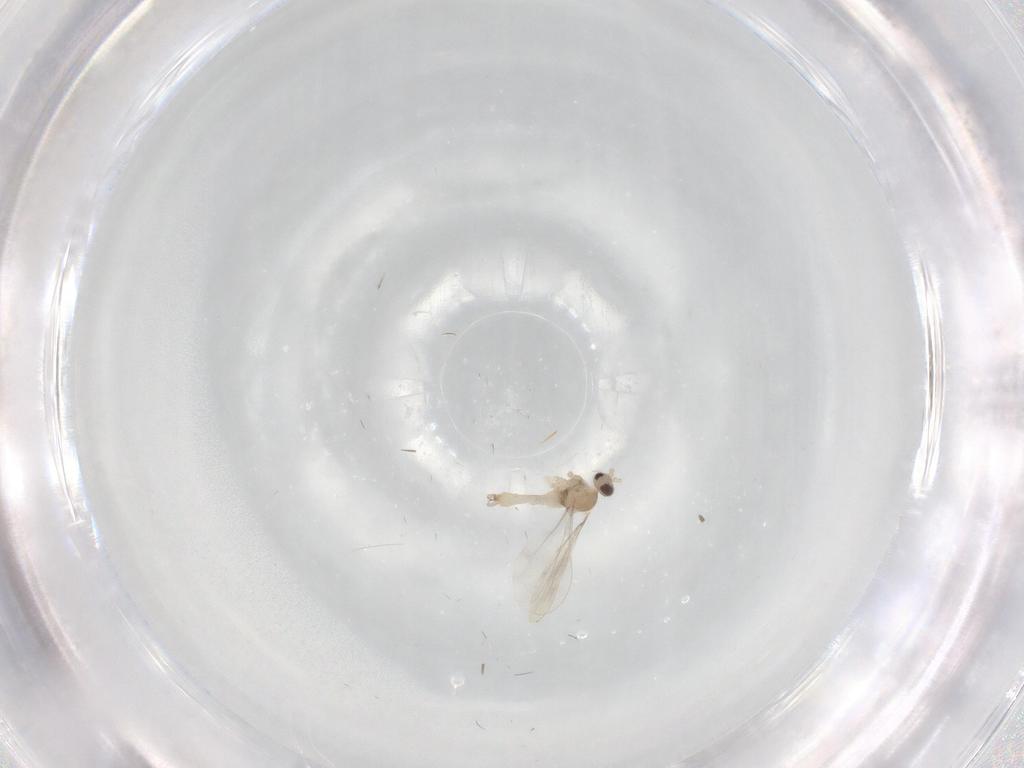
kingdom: Animalia
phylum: Arthropoda
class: Insecta
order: Diptera
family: Cecidomyiidae
